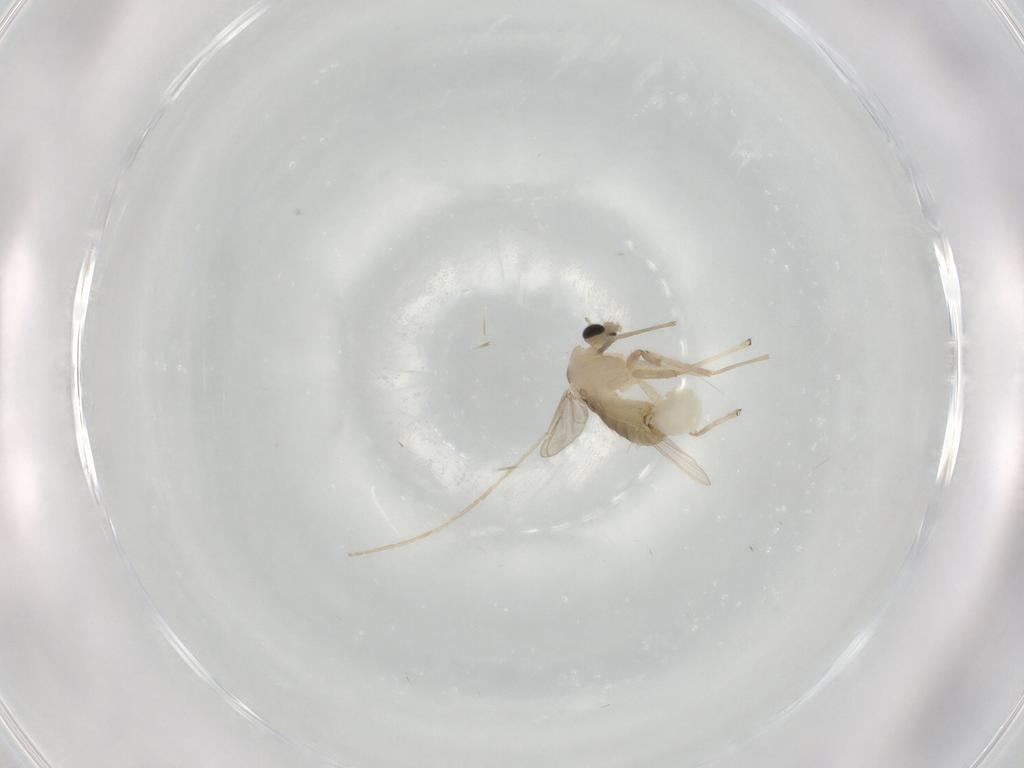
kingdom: Animalia
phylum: Arthropoda
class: Insecta
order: Diptera
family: Chironomidae
